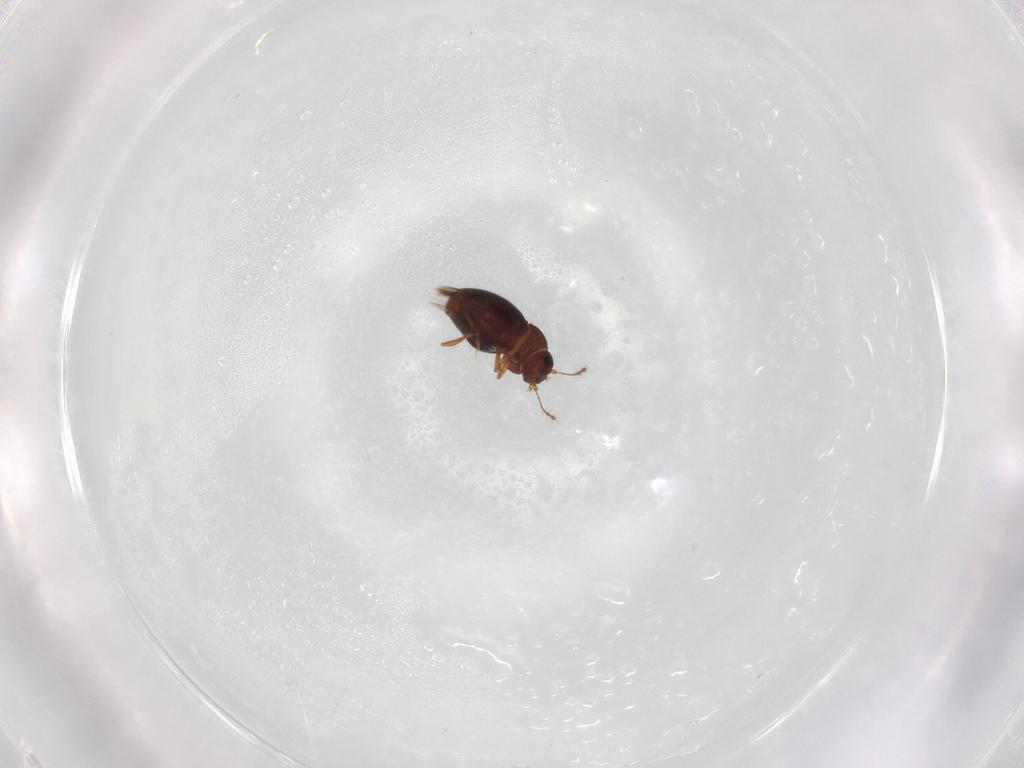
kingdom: Animalia
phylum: Arthropoda
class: Insecta
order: Coleoptera
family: Ptiliidae
